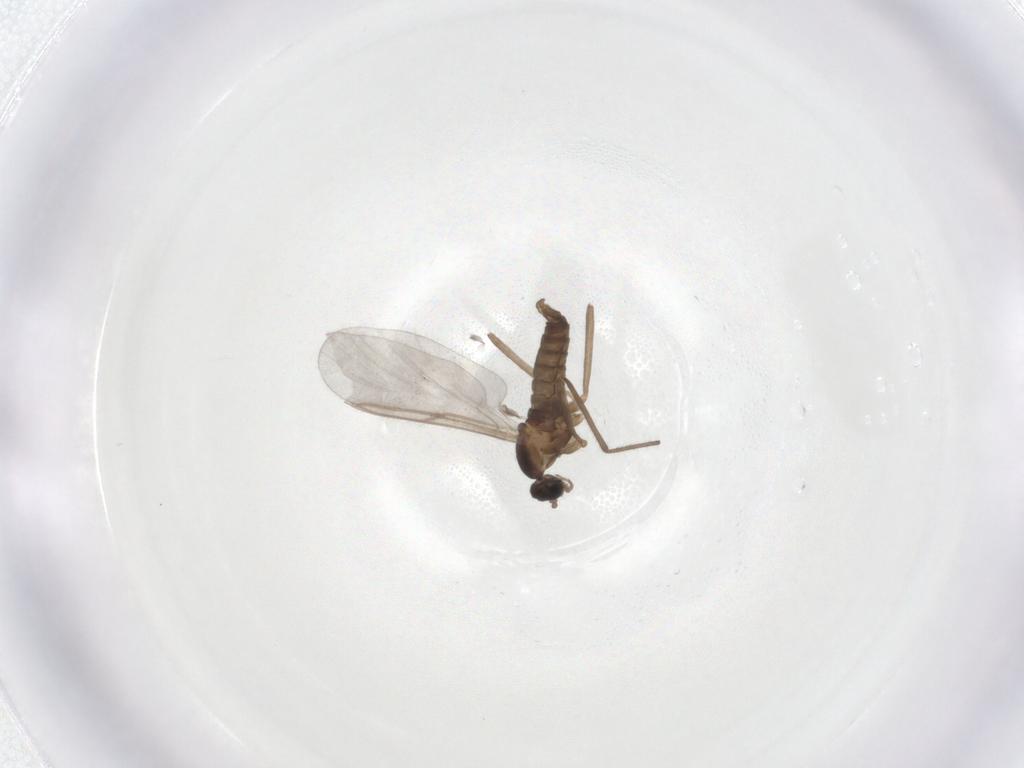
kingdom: Animalia
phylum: Arthropoda
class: Insecta
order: Diptera
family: Cecidomyiidae
